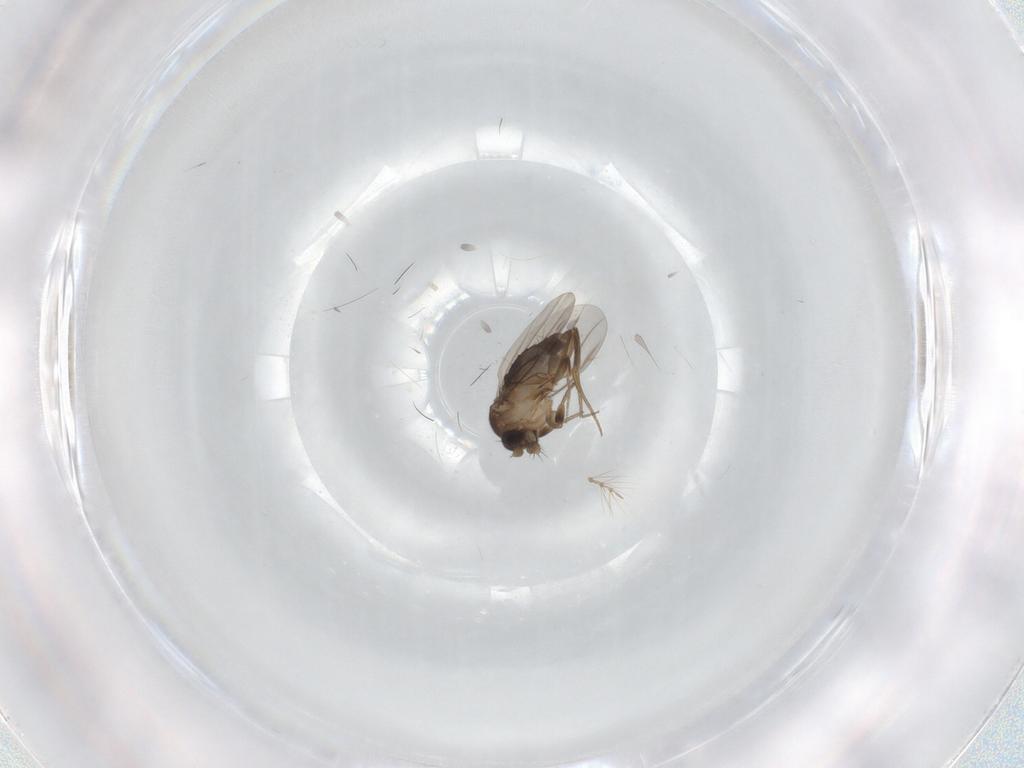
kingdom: Animalia
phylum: Arthropoda
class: Insecta
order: Diptera
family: Phoridae
